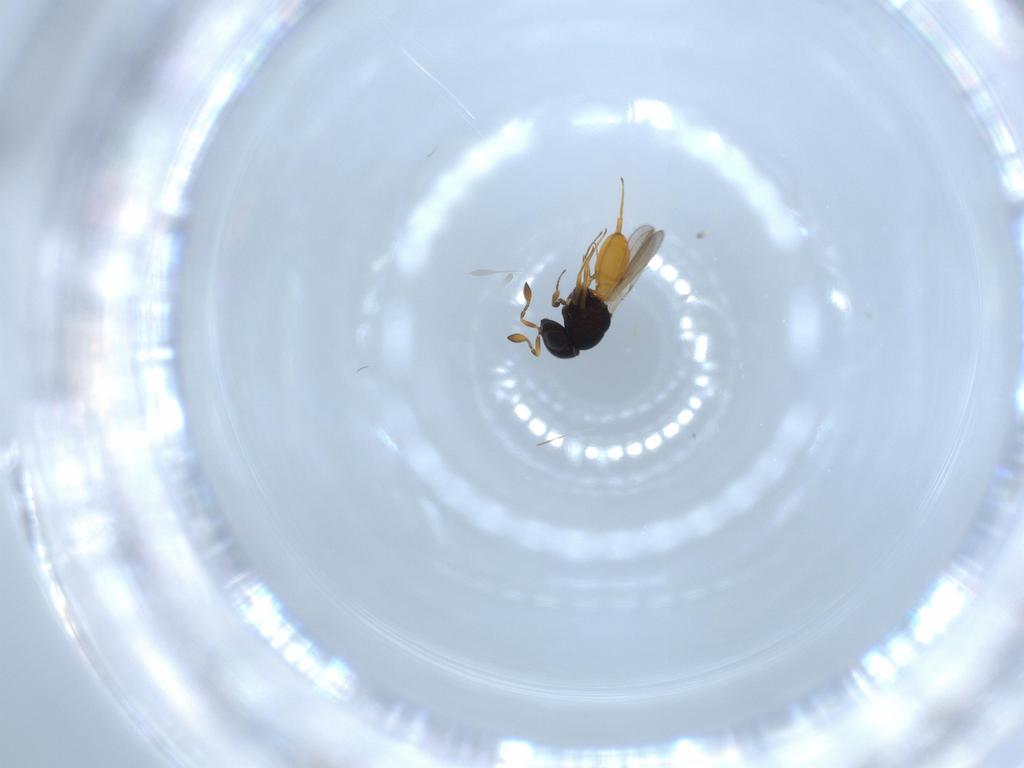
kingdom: Animalia
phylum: Arthropoda
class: Insecta
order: Hymenoptera
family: Scelionidae
